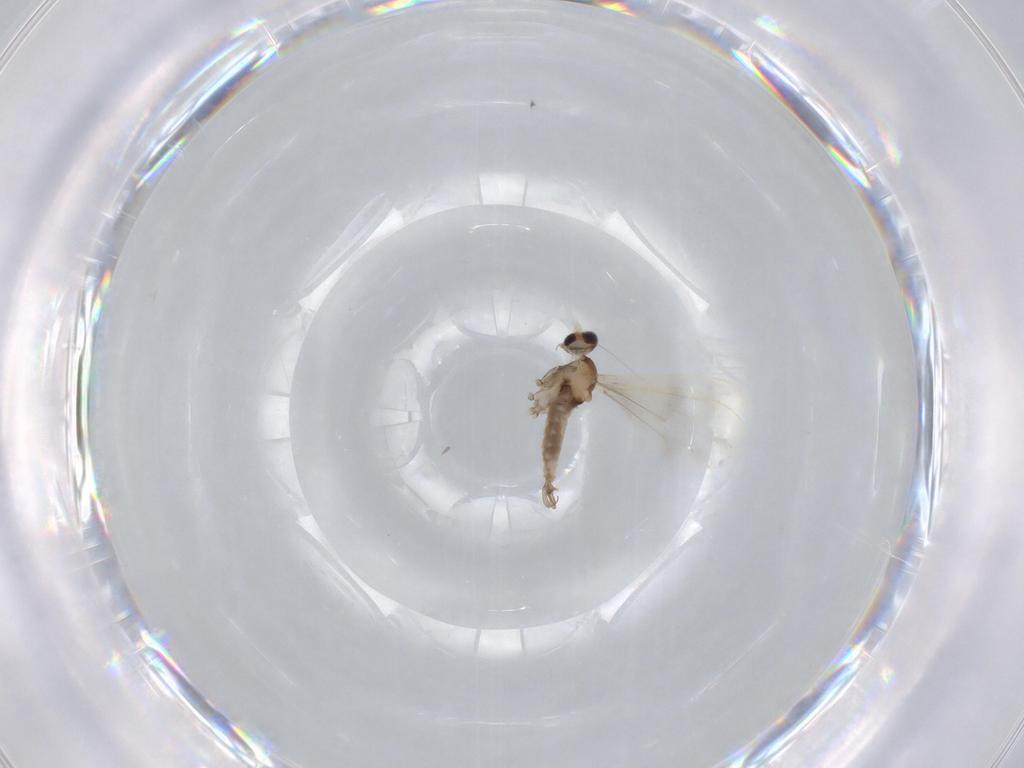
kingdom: Animalia
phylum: Arthropoda
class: Insecta
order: Diptera
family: Cecidomyiidae
